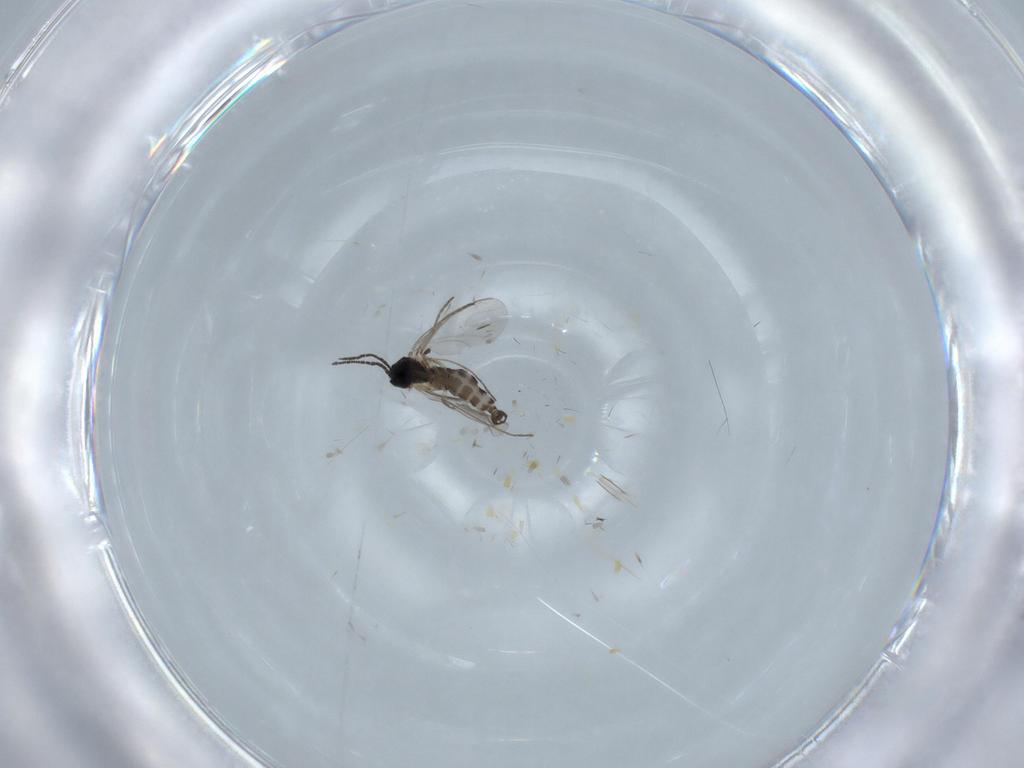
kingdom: Animalia
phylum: Arthropoda
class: Insecta
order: Diptera
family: Sciaridae
